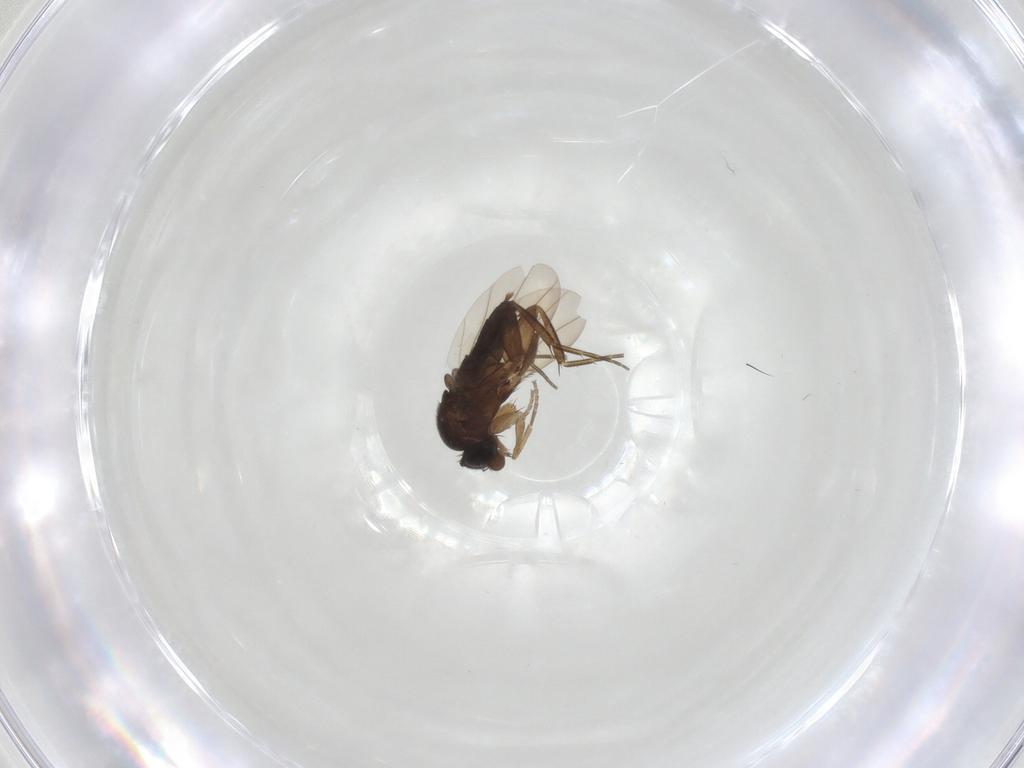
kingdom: Animalia
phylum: Arthropoda
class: Insecta
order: Diptera
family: Phoridae
